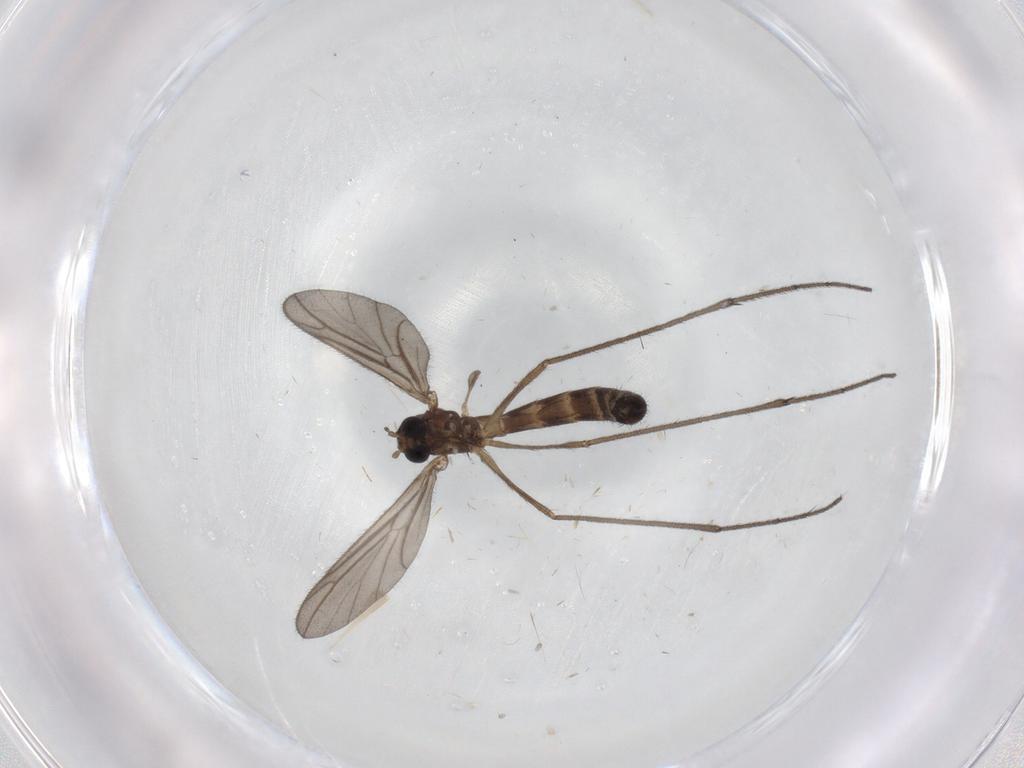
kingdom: Animalia
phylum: Arthropoda
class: Insecta
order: Diptera
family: Keroplatidae
